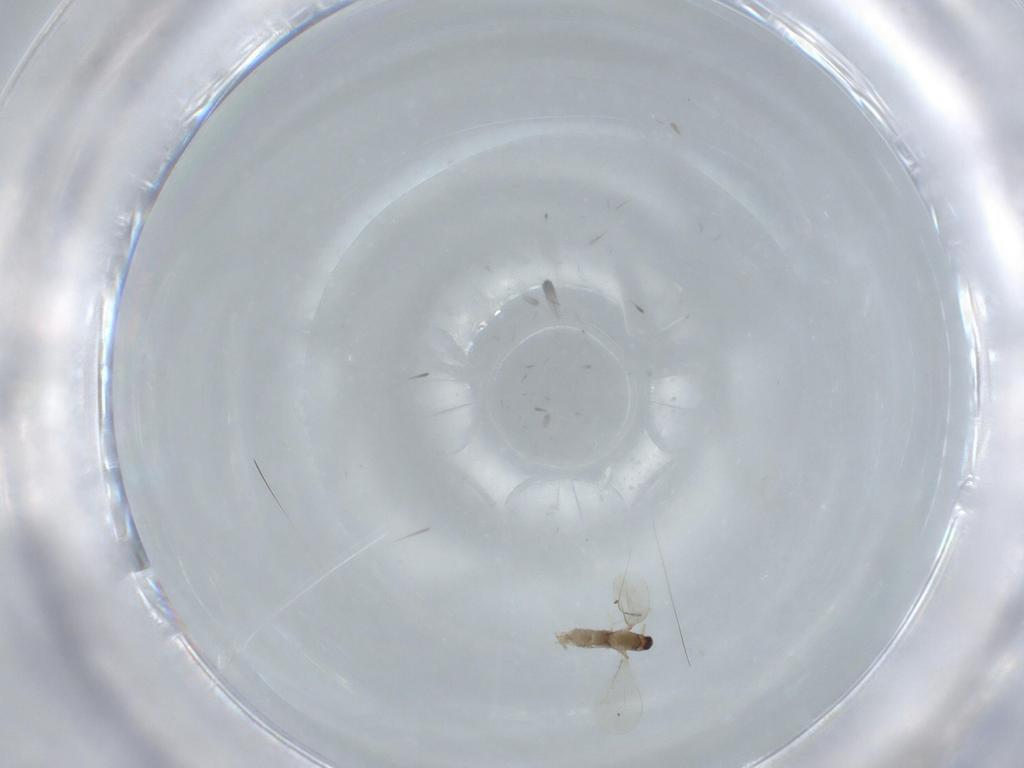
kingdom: Animalia
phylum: Arthropoda
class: Insecta
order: Diptera
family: Cecidomyiidae
